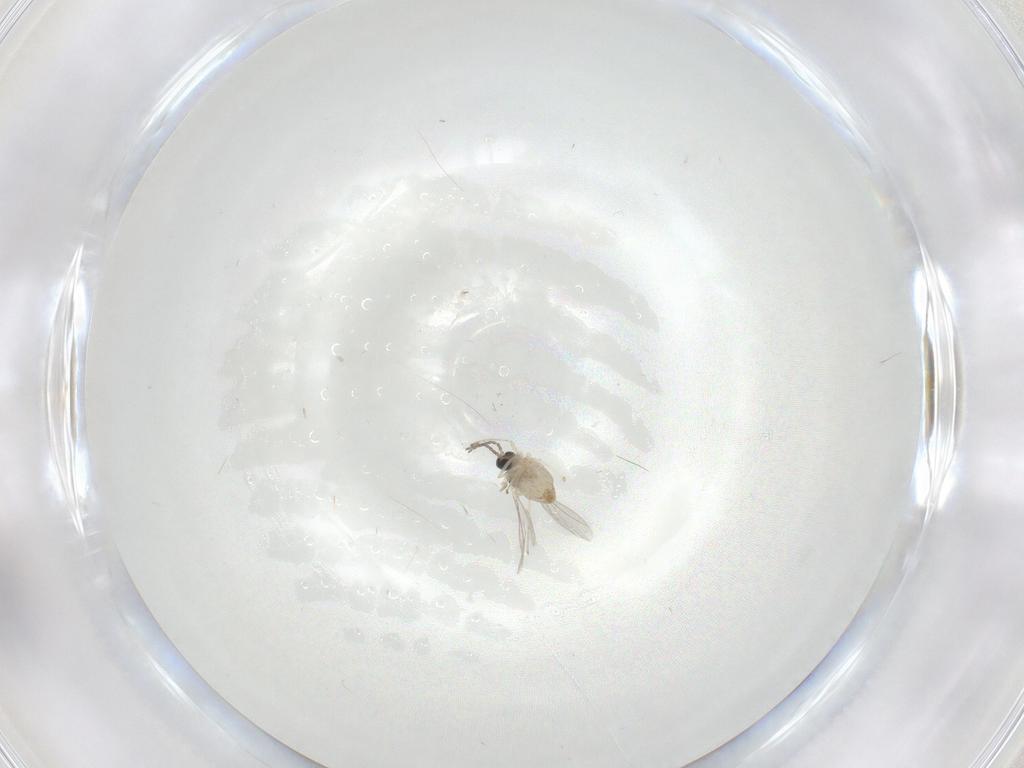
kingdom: Animalia
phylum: Arthropoda
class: Insecta
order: Diptera
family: Cecidomyiidae
